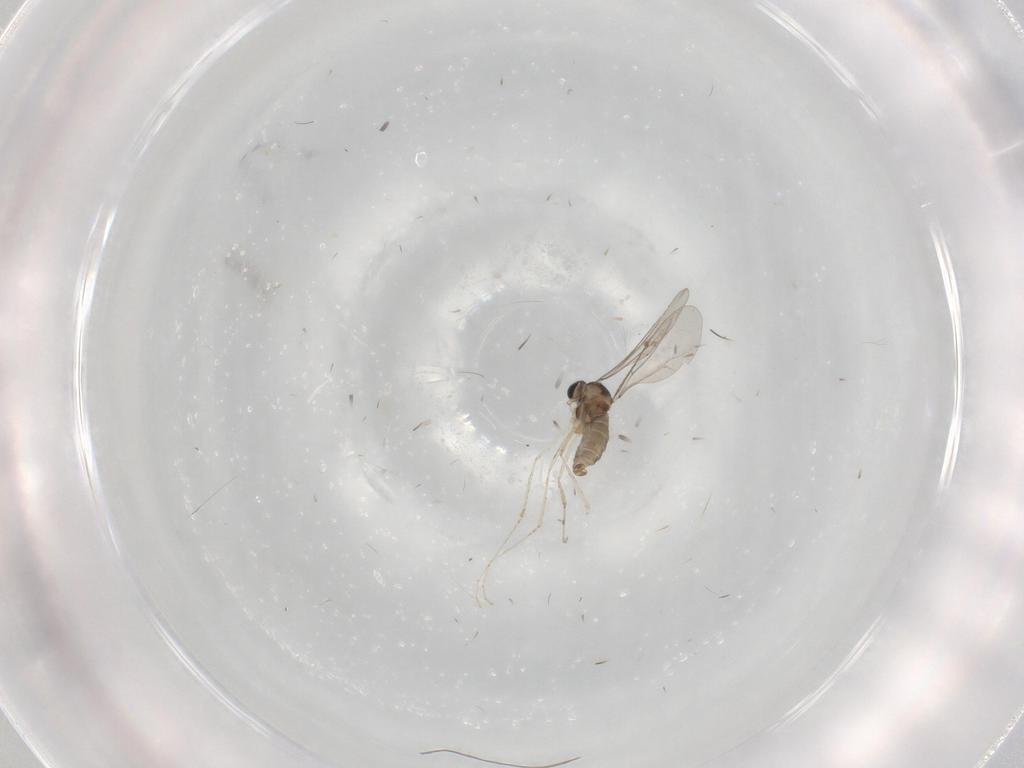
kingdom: Animalia
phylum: Arthropoda
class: Insecta
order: Diptera
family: Cecidomyiidae
